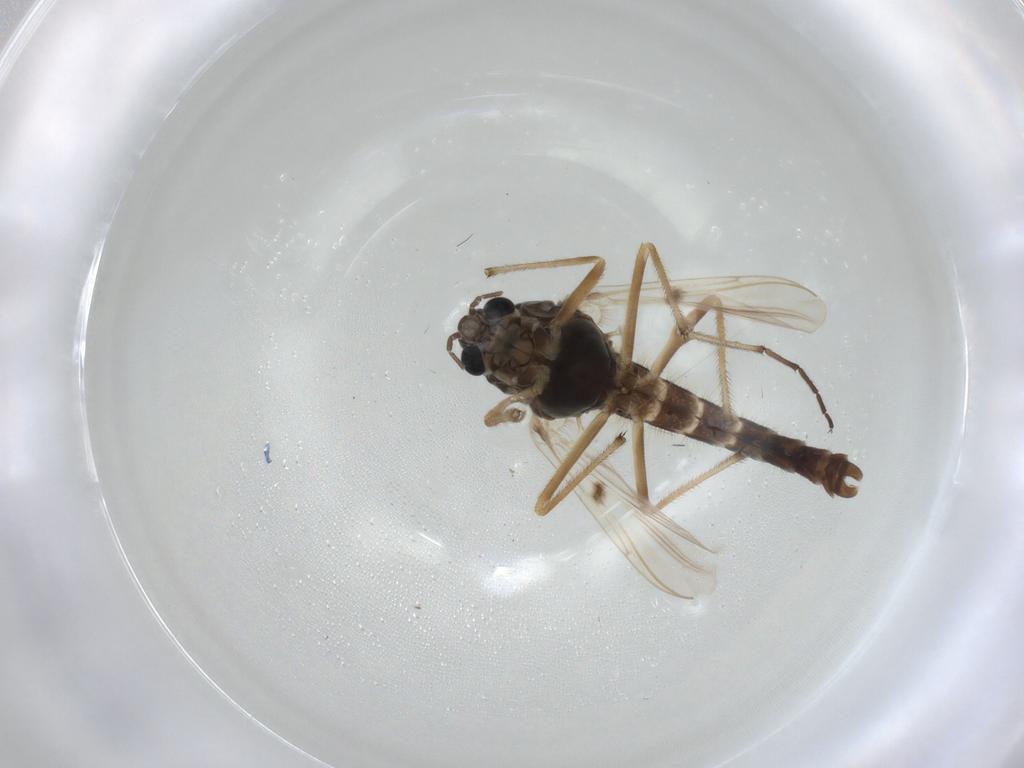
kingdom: Animalia
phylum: Arthropoda
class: Insecta
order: Diptera
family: Chironomidae
